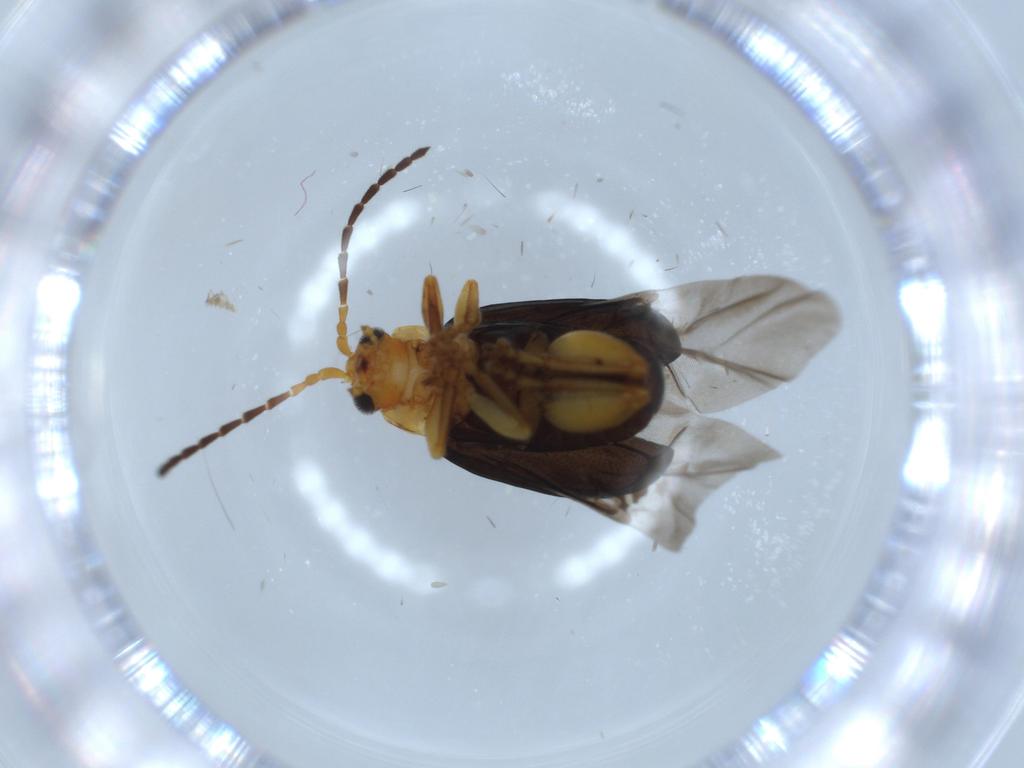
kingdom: Animalia
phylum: Arthropoda
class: Insecta
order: Coleoptera
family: Chrysomelidae
